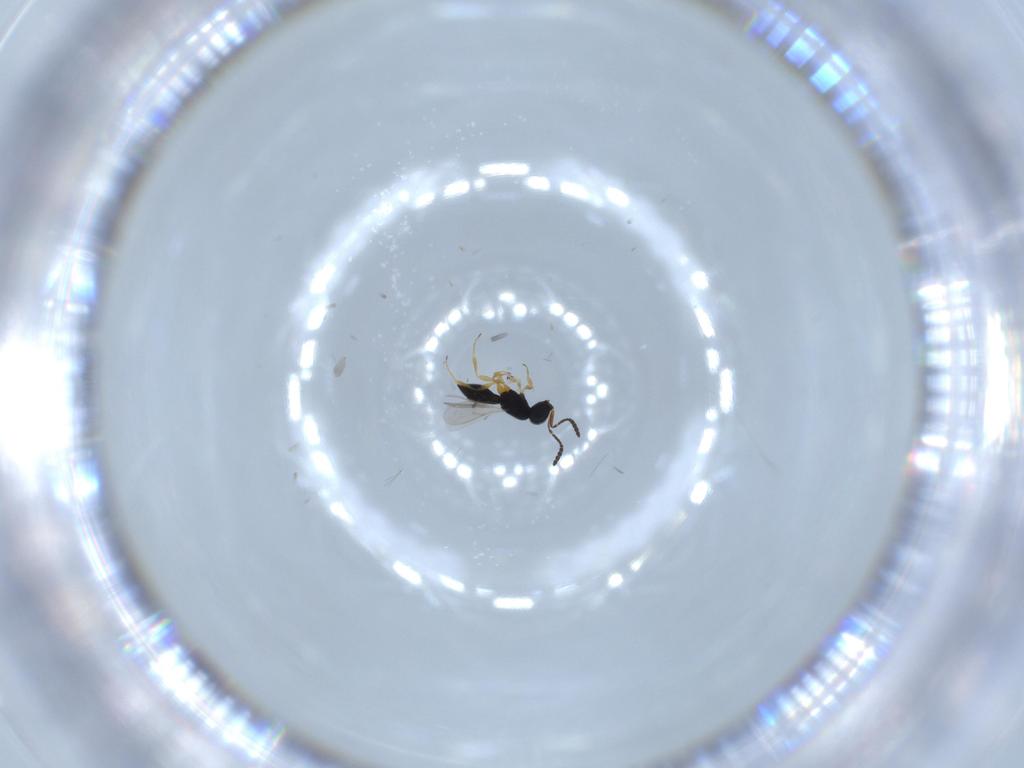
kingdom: Animalia
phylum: Arthropoda
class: Insecta
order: Hymenoptera
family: Scelionidae
